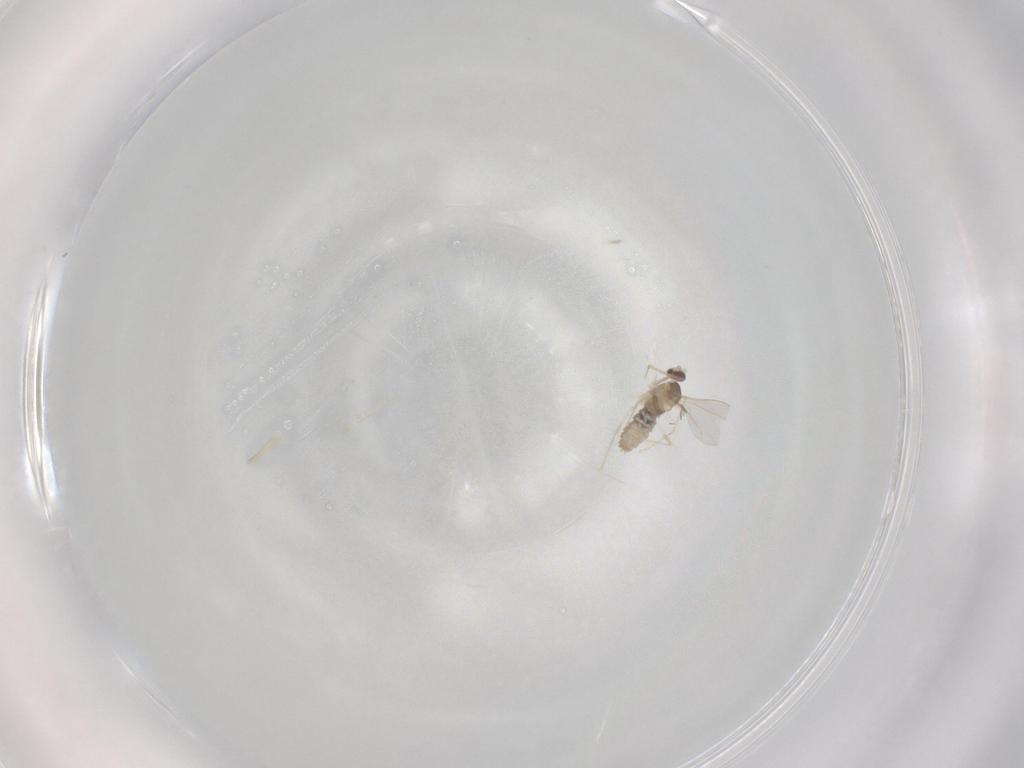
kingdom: Animalia
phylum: Arthropoda
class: Insecta
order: Diptera
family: Cecidomyiidae
